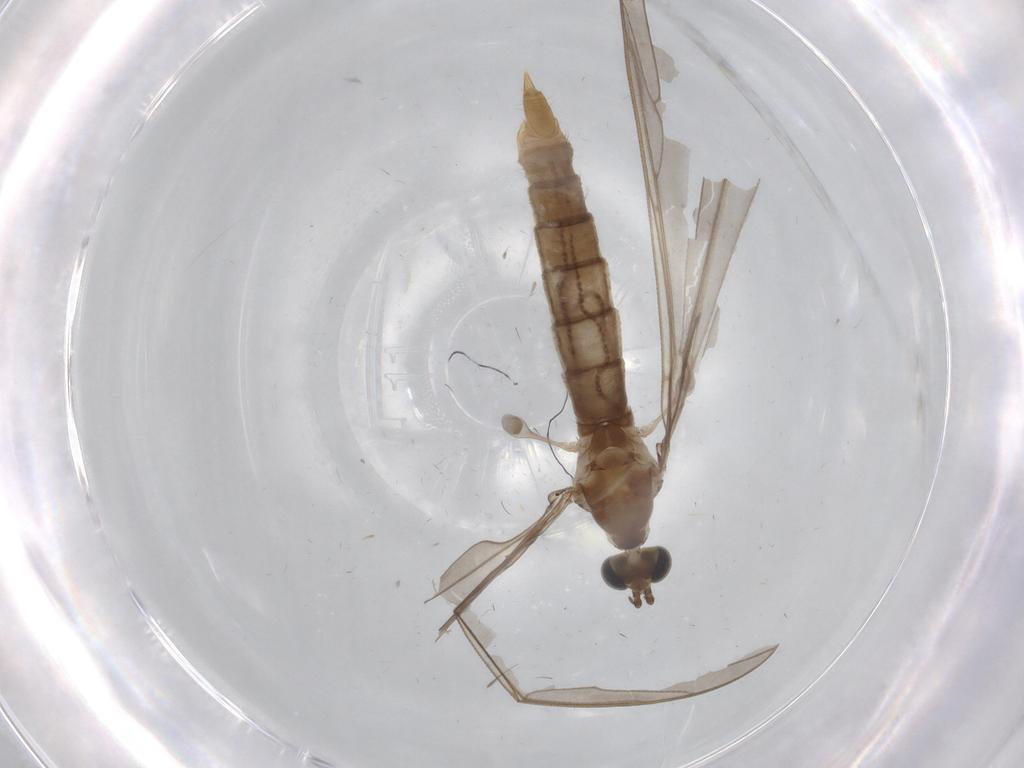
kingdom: Animalia
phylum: Arthropoda
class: Insecta
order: Diptera
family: Limoniidae
